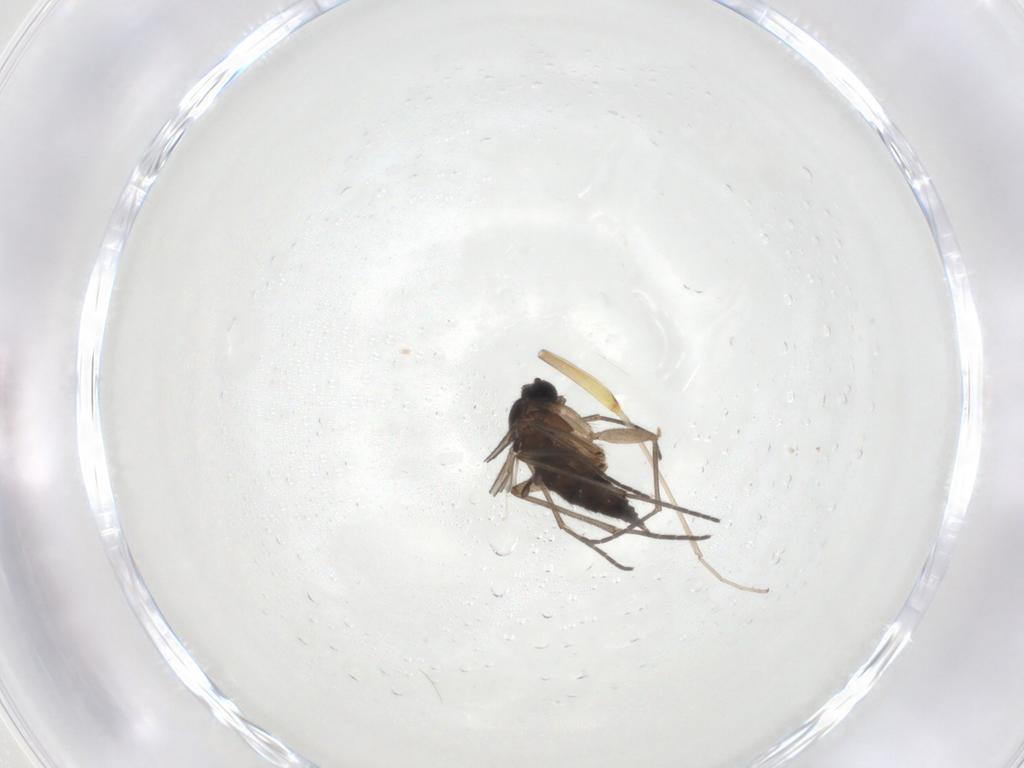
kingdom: Animalia
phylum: Arthropoda
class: Insecta
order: Diptera
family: Sciaridae
